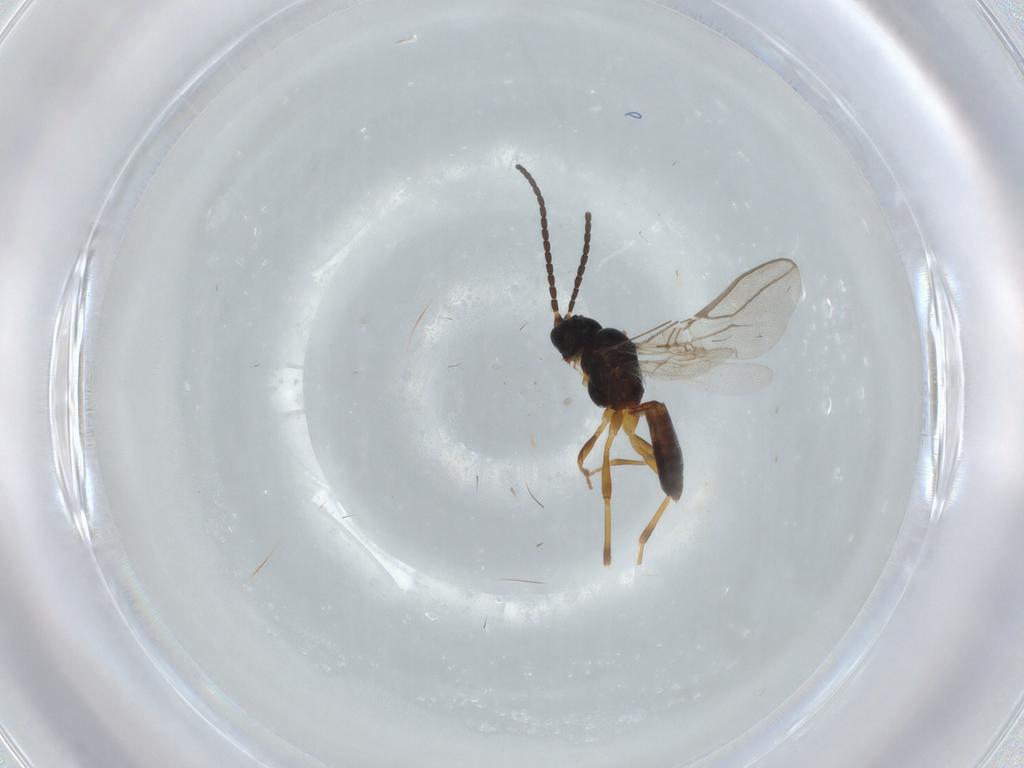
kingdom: Animalia
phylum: Arthropoda
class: Insecta
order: Hymenoptera
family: Braconidae
